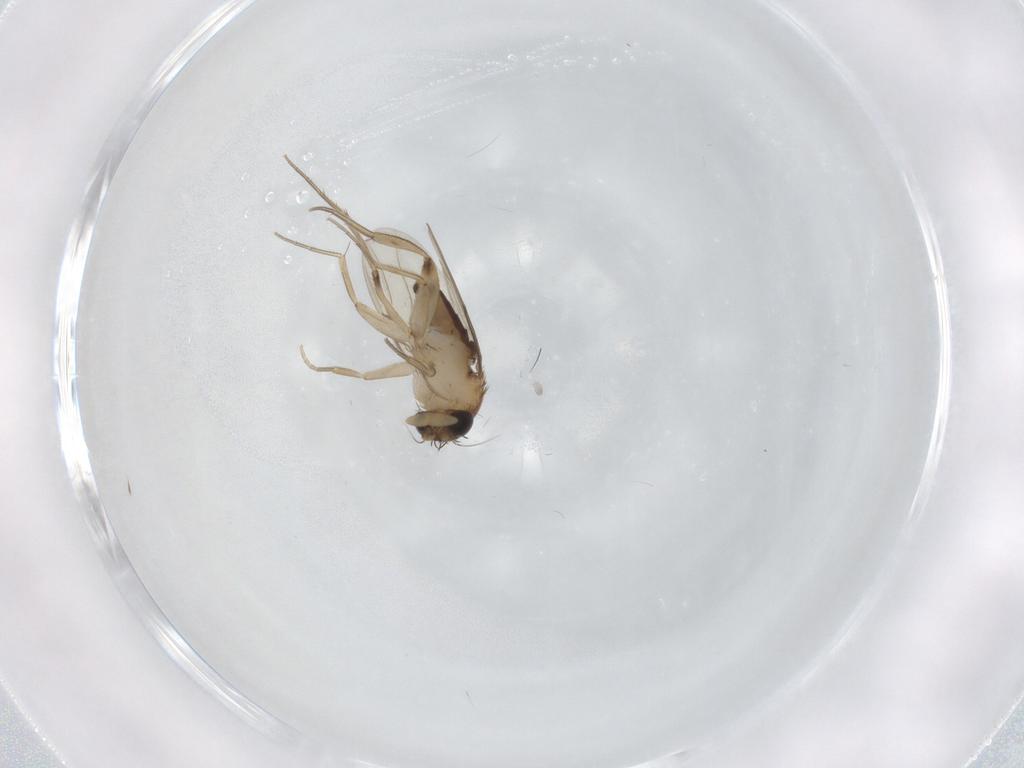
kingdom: Animalia
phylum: Arthropoda
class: Insecta
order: Diptera
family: Phoridae
